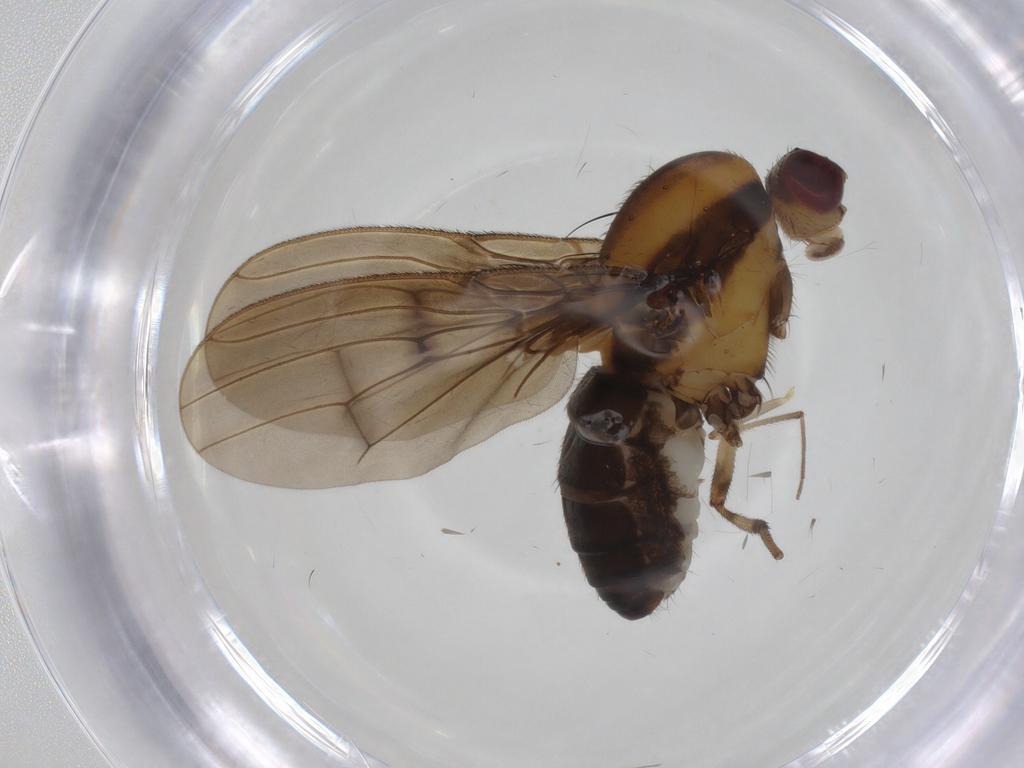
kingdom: Animalia
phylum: Arthropoda
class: Insecta
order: Diptera
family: Heleomyzidae
